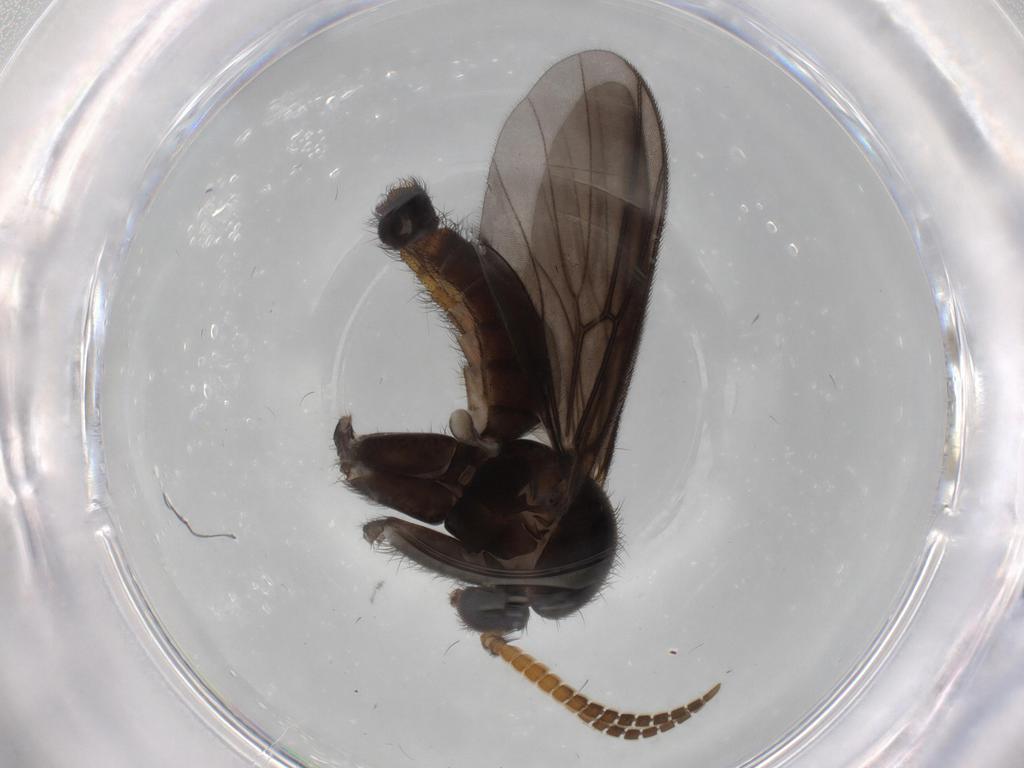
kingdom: Animalia
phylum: Arthropoda
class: Insecta
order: Diptera
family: Mycetophilidae
